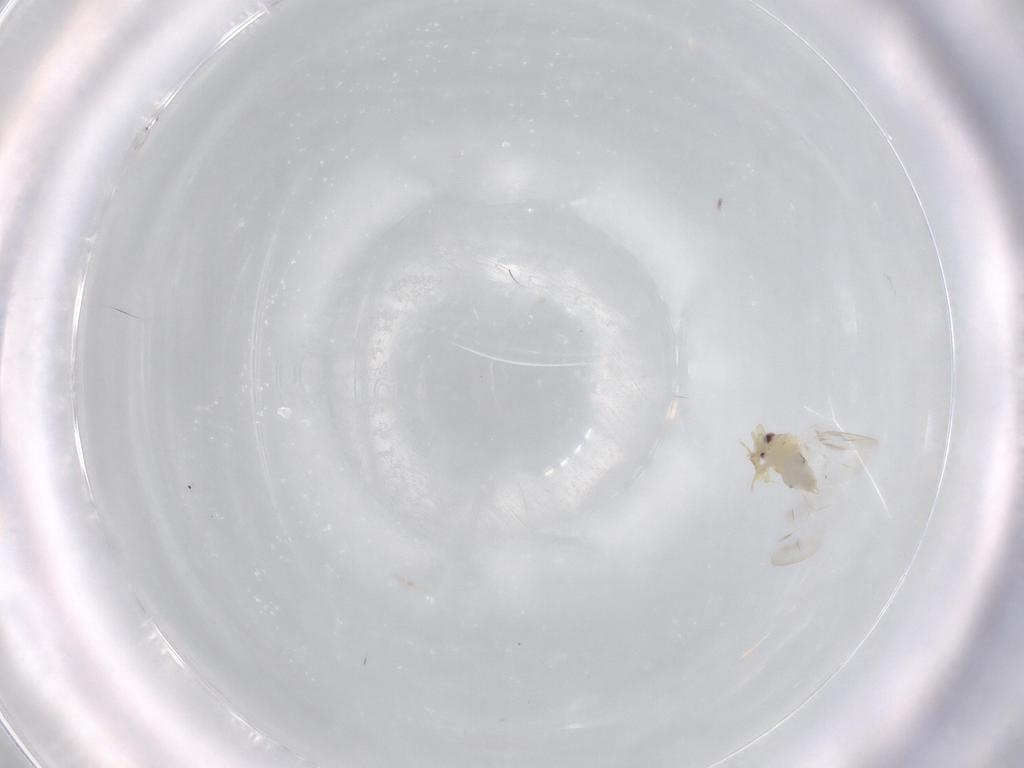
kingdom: Animalia
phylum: Arthropoda
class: Insecta
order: Hemiptera
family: Aleyrodidae
